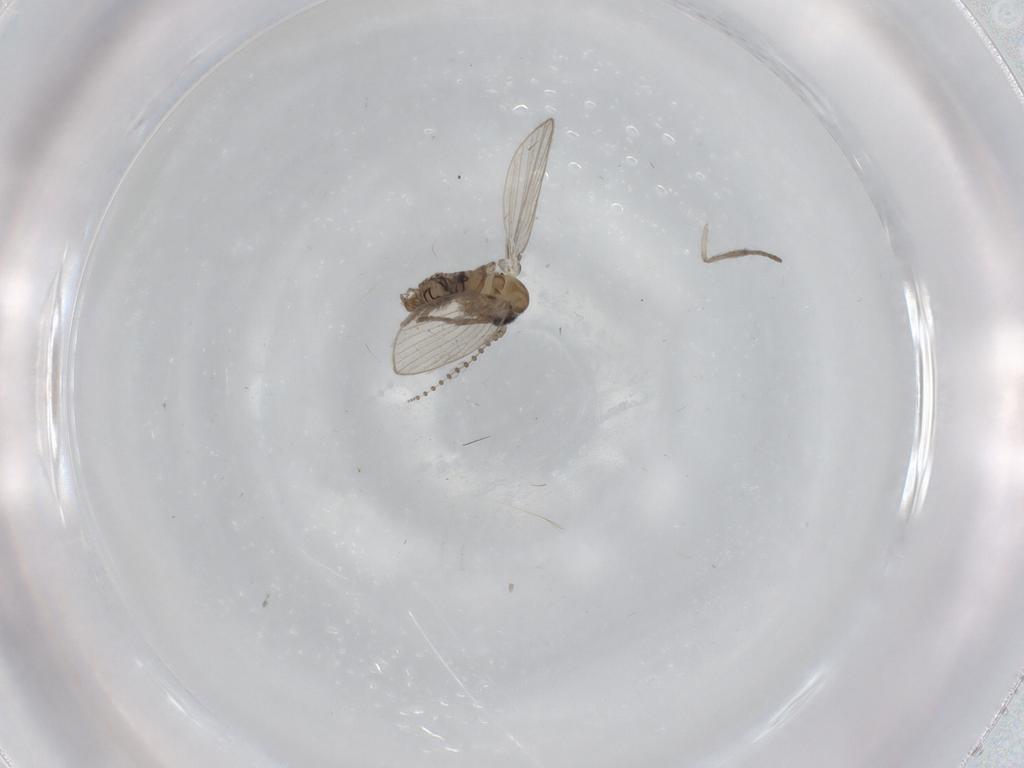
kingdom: Animalia
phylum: Arthropoda
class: Insecta
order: Diptera
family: Psychodidae
